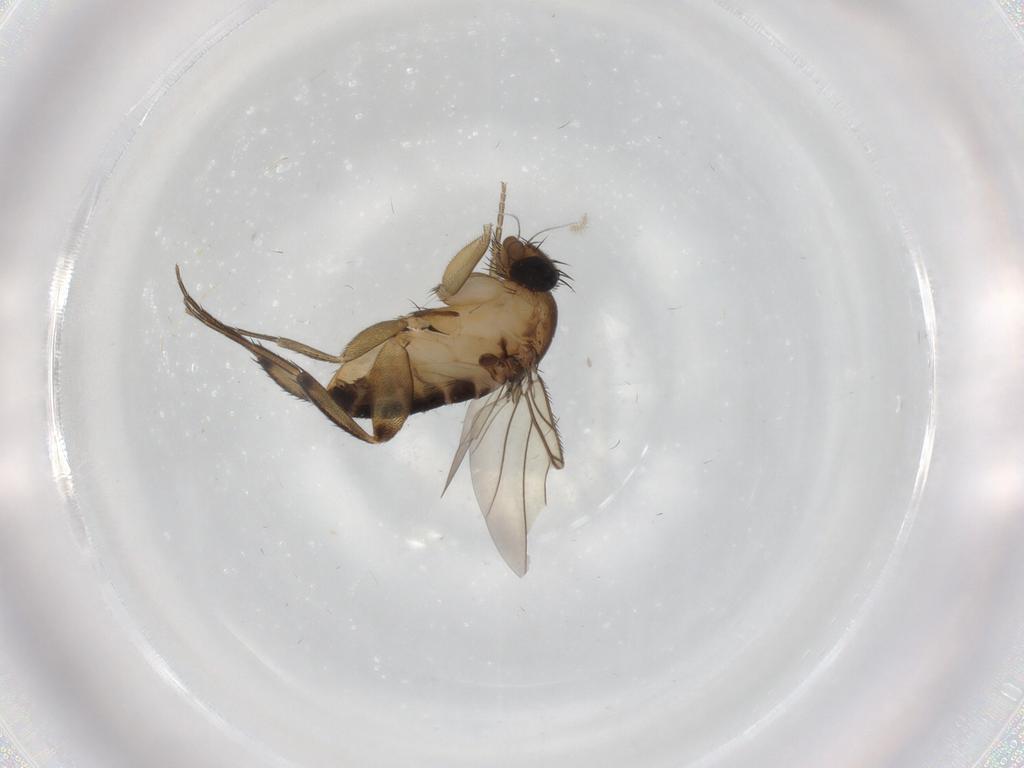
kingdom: Animalia
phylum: Arthropoda
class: Insecta
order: Diptera
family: Phoridae
